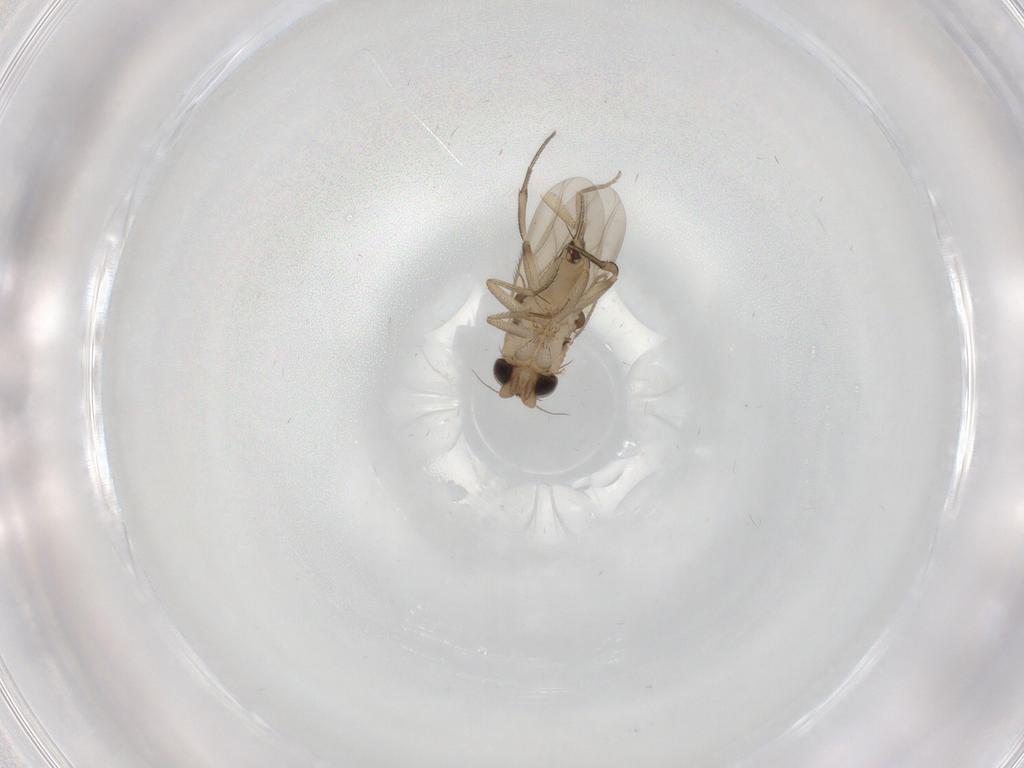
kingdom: Animalia
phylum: Arthropoda
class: Insecta
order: Diptera
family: Phoridae
